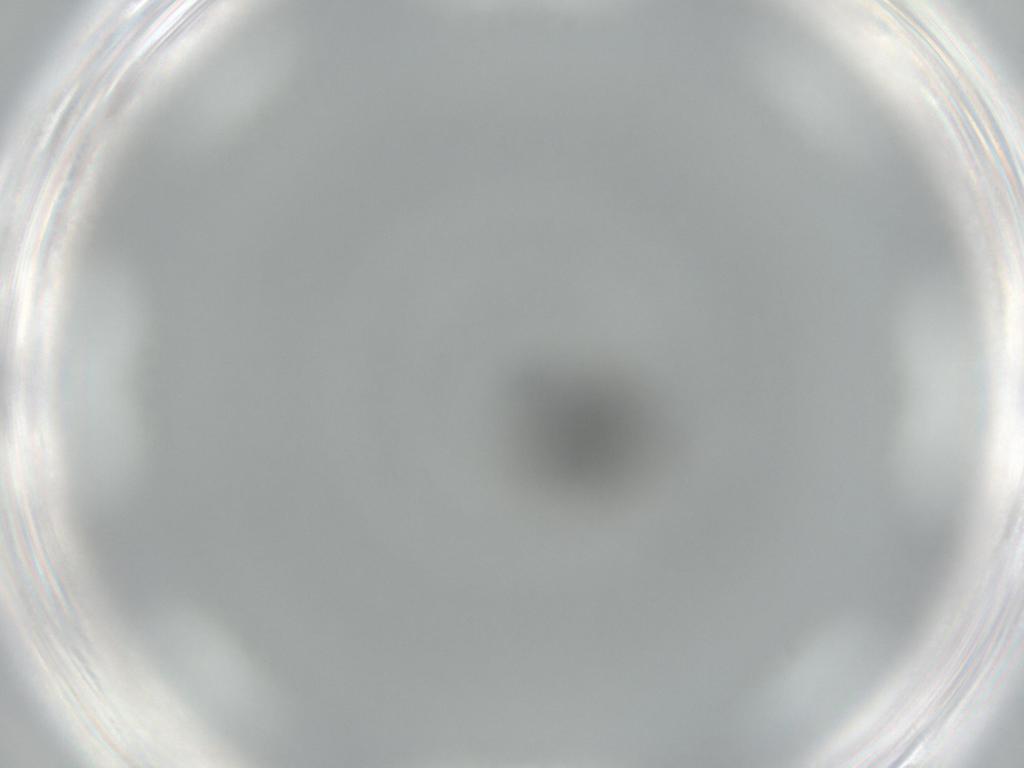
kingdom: Animalia
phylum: Arthropoda
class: Insecta
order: Diptera
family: Phoridae
